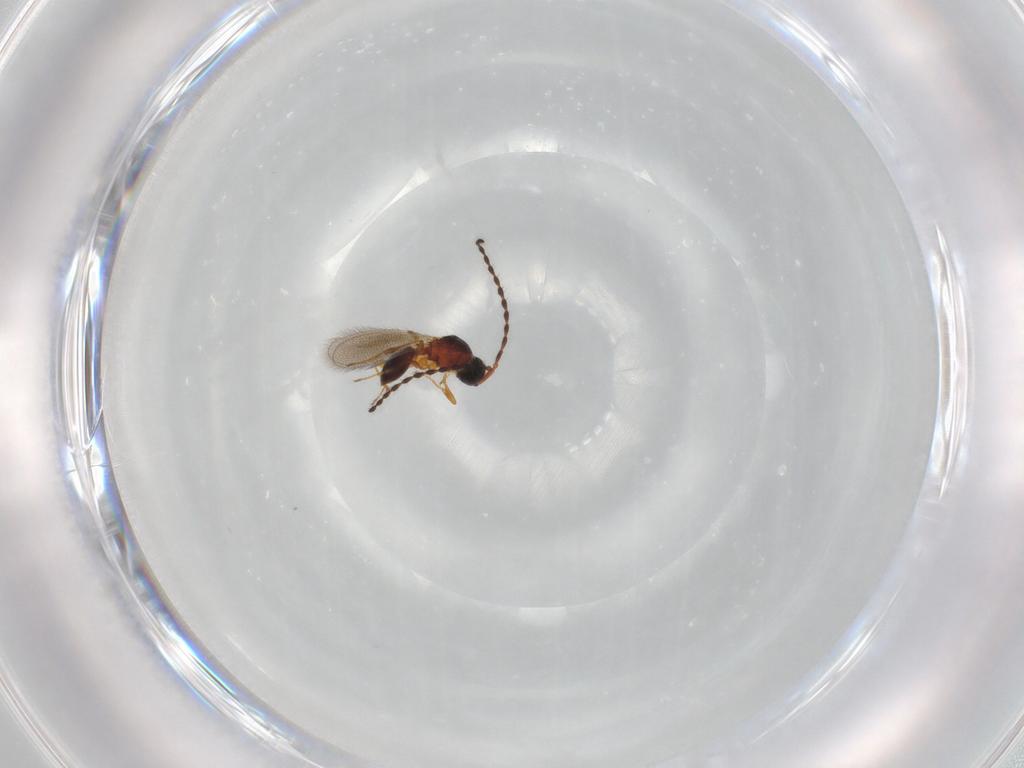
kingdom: Animalia
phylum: Arthropoda
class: Insecta
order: Hymenoptera
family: Diapriidae
